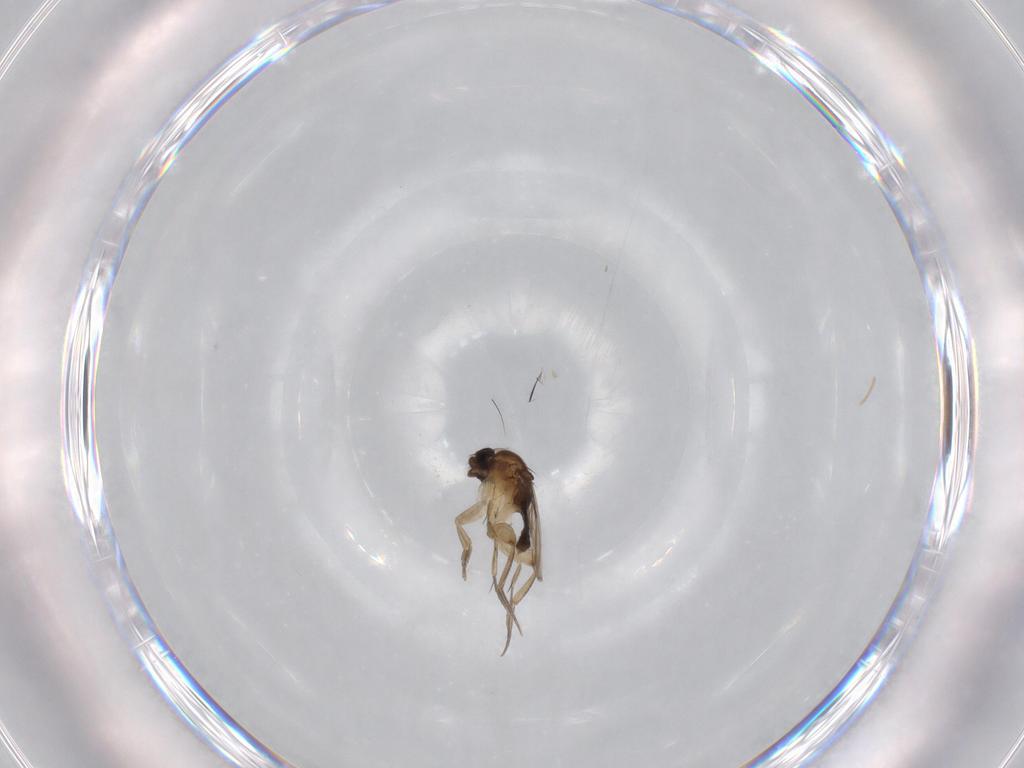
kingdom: Animalia
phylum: Arthropoda
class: Insecta
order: Diptera
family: Phoridae
